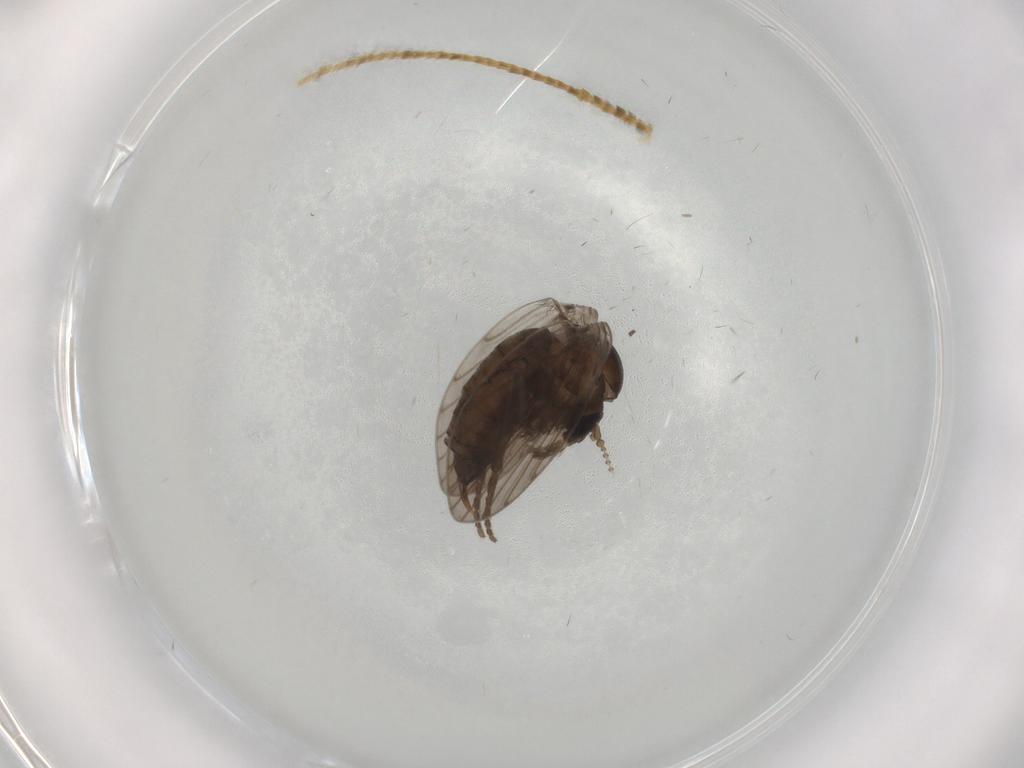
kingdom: Animalia
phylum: Arthropoda
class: Insecta
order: Diptera
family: Psychodidae
